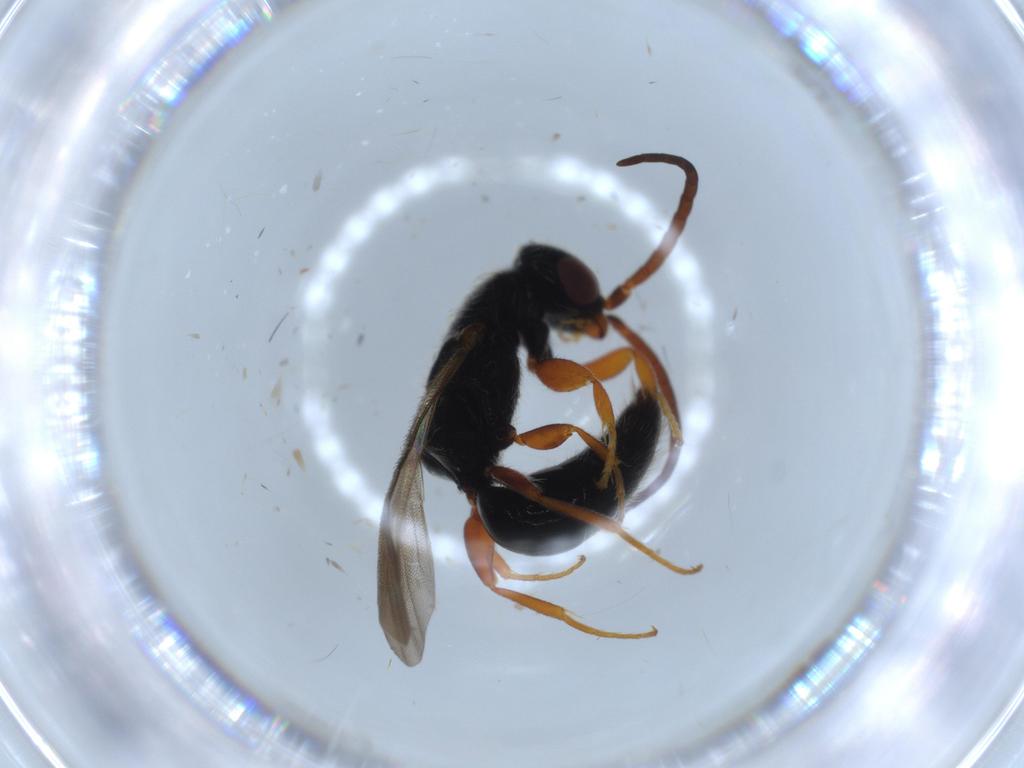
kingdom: Animalia
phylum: Arthropoda
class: Insecta
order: Hymenoptera
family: Bethylidae
